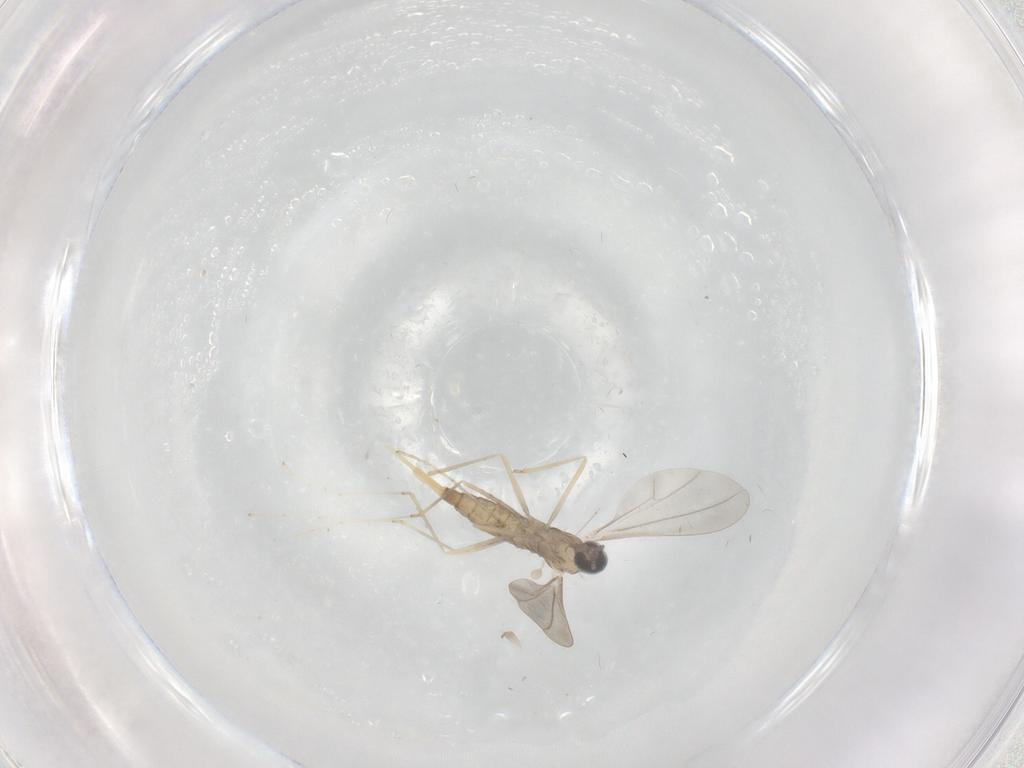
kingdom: Animalia
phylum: Arthropoda
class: Insecta
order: Diptera
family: Cecidomyiidae
